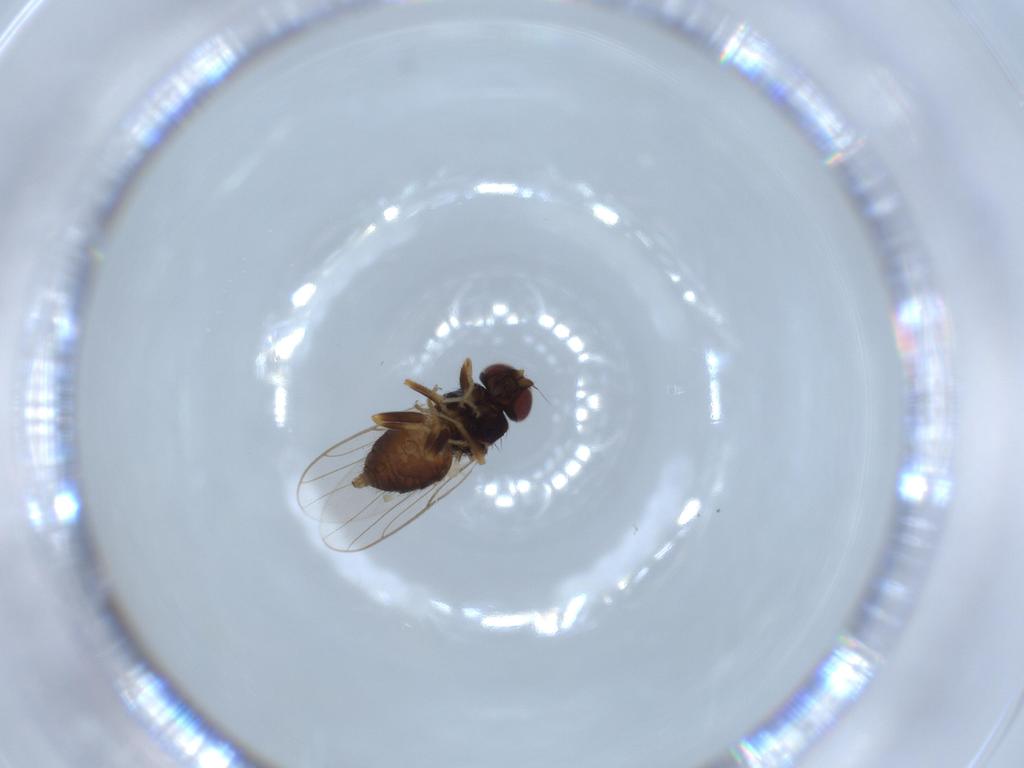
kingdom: Animalia
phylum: Arthropoda
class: Insecta
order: Diptera
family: Chloropidae
